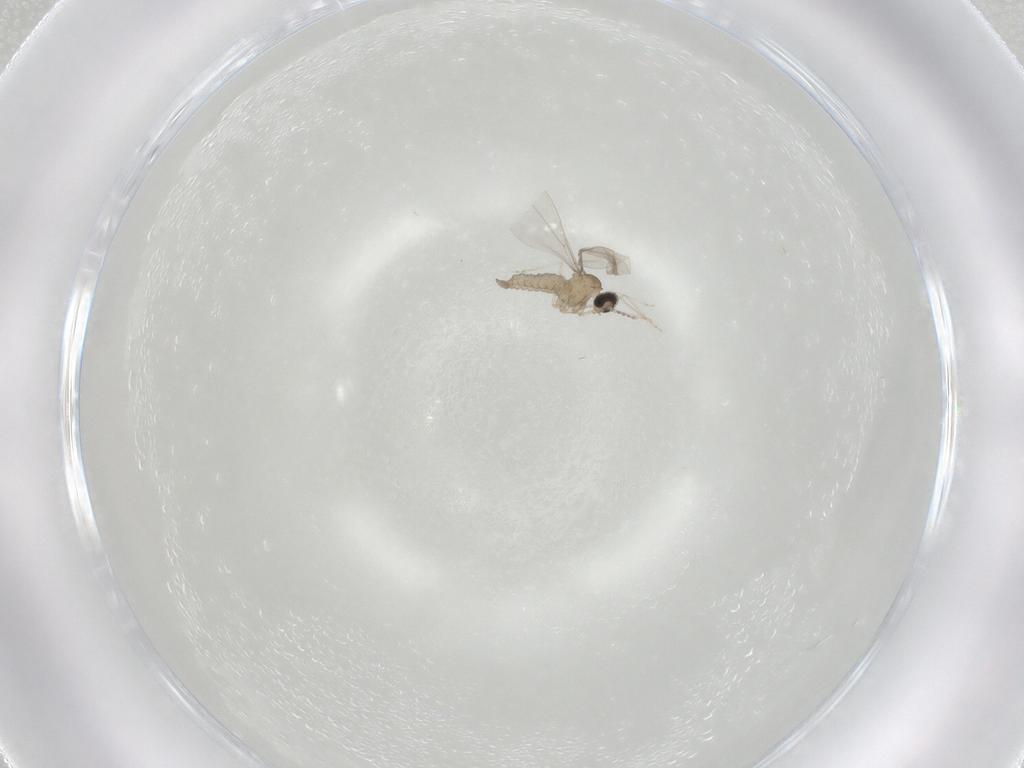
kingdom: Animalia
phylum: Arthropoda
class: Insecta
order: Diptera
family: Cecidomyiidae
